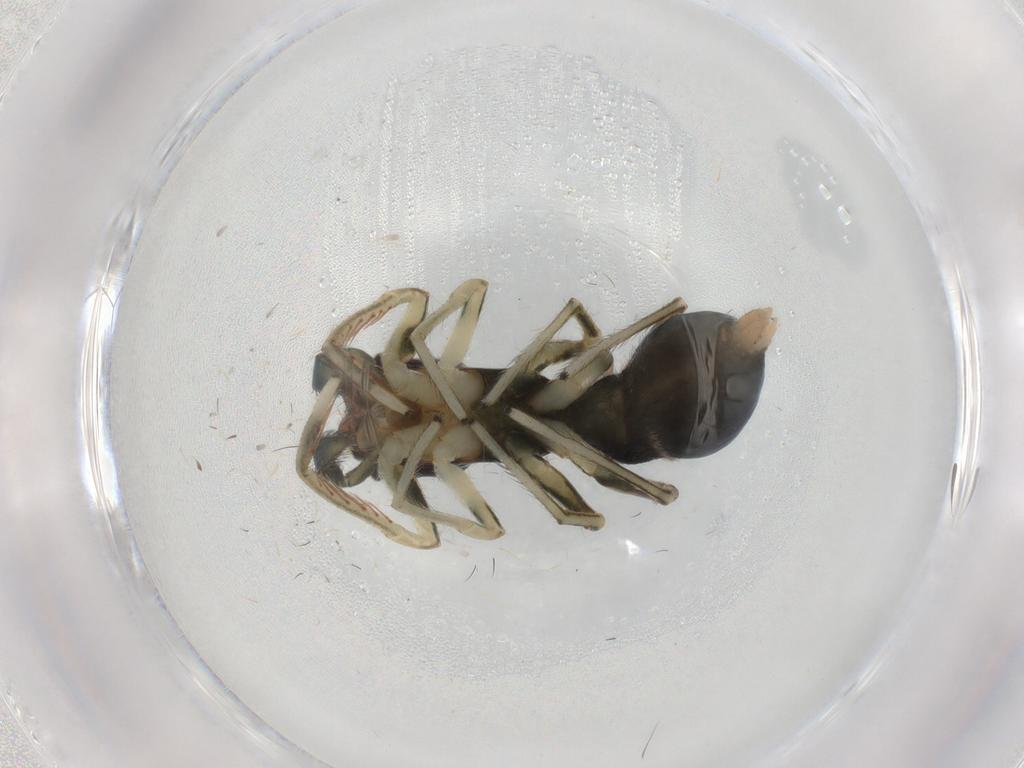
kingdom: Animalia
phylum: Arthropoda
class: Arachnida
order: Araneae
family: Salticidae
